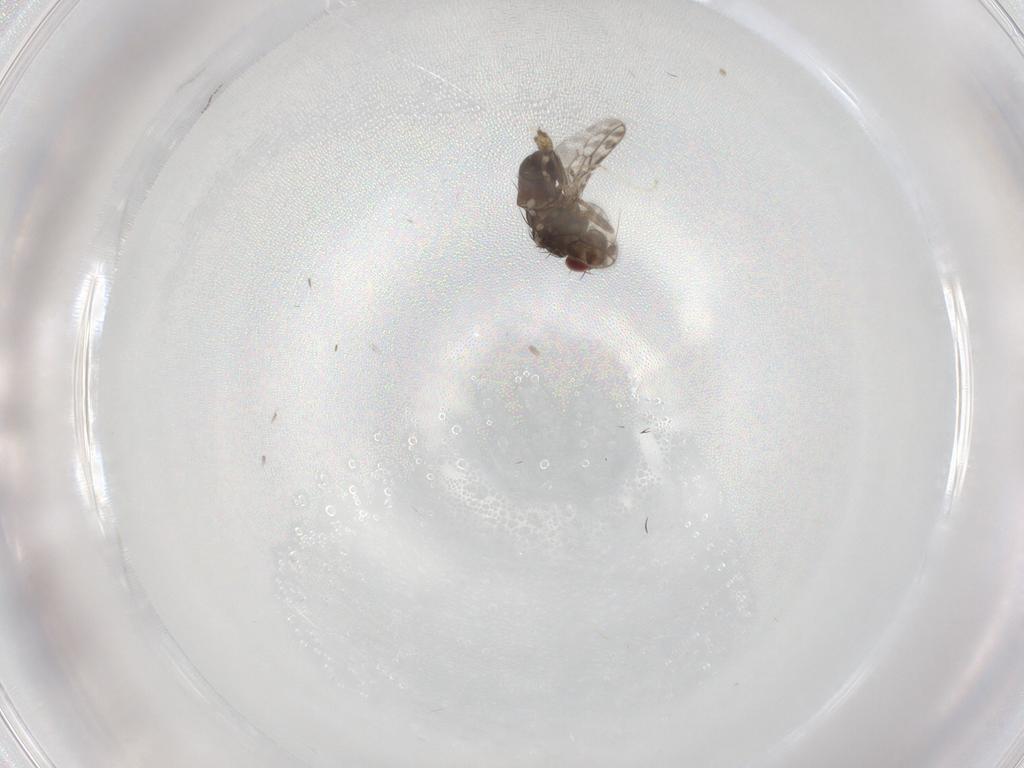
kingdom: Animalia
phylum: Arthropoda
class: Insecta
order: Diptera
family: Sphaeroceridae
